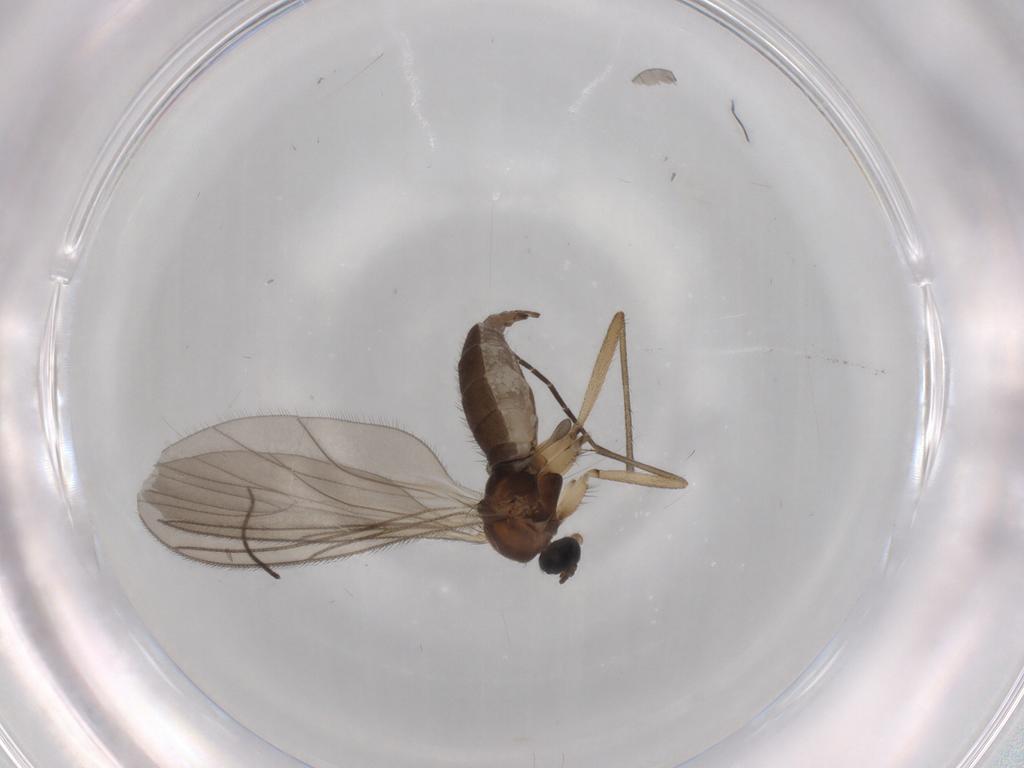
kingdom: Animalia
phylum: Arthropoda
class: Insecta
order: Diptera
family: Sciaridae
